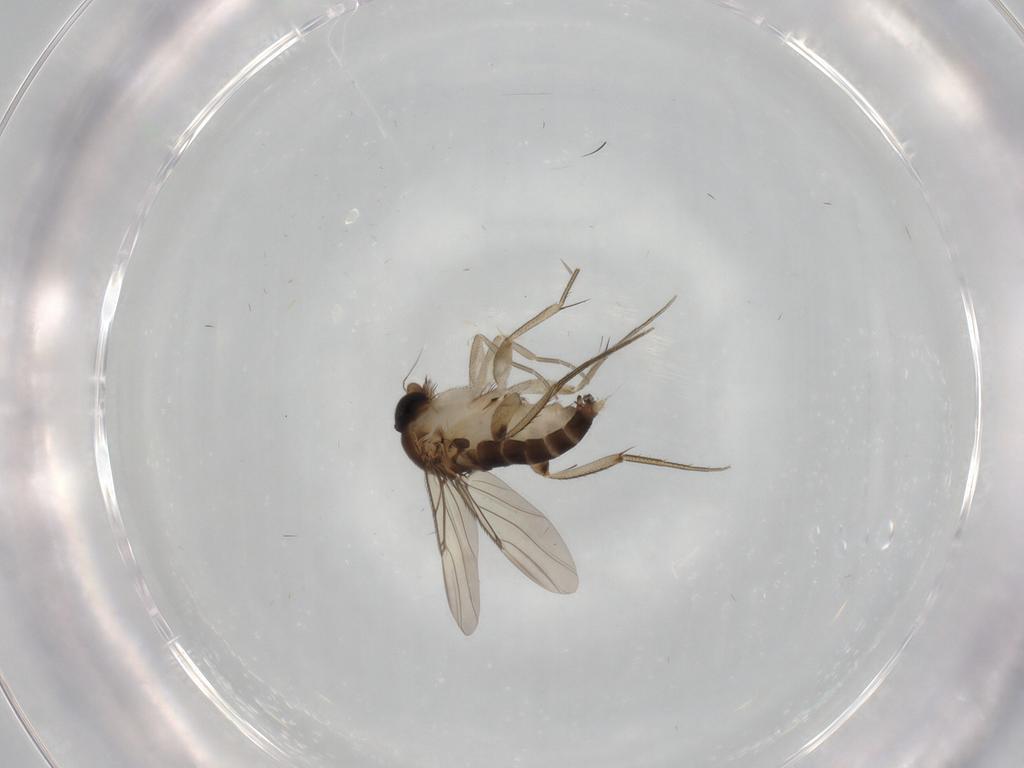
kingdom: Animalia
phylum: Arthropoda
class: Insecta
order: Diptera
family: Phoridae
